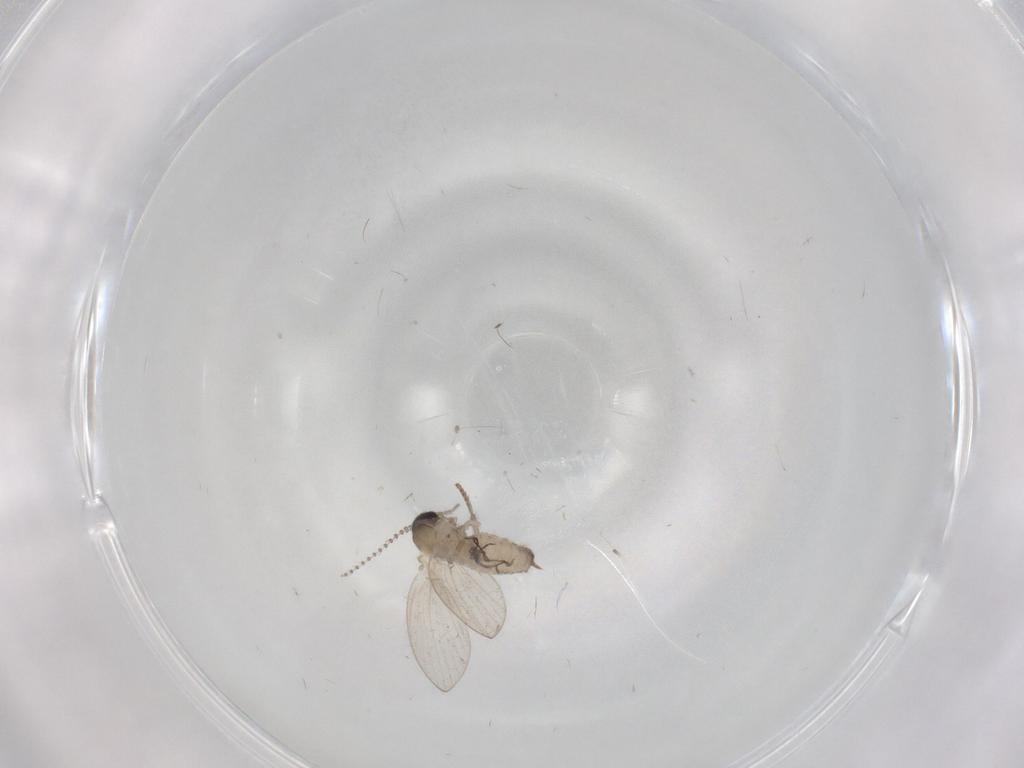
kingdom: Animalia
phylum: Arthropoda
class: Insecta
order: Diptera
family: Psychodidae
